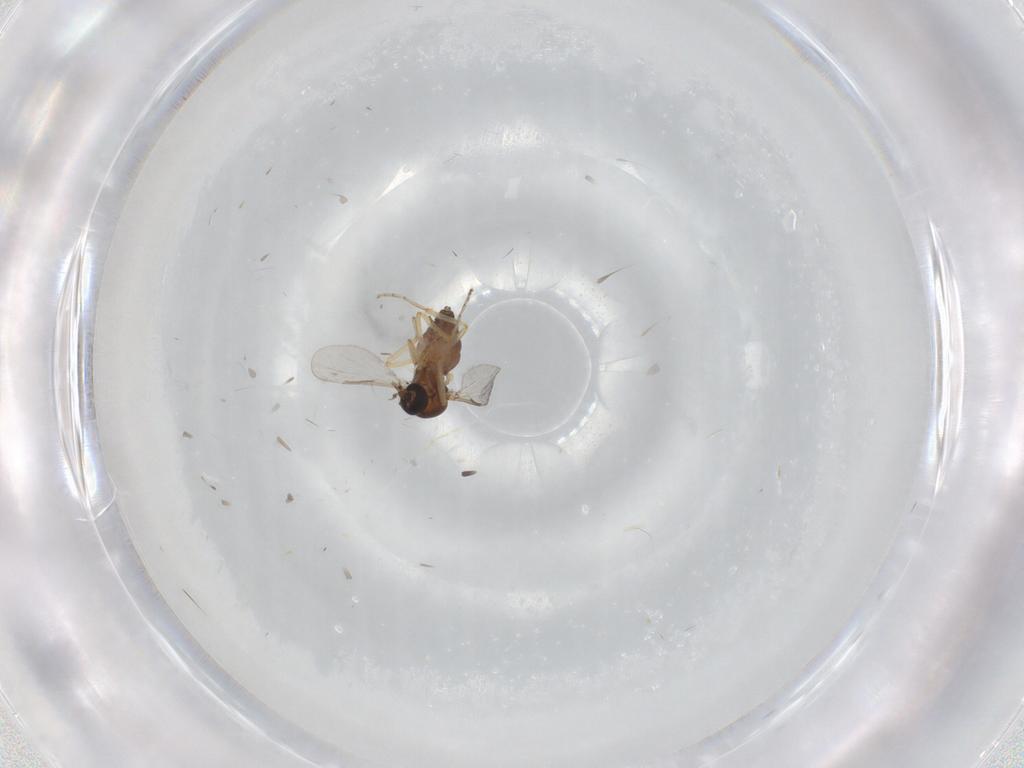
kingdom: Animalia
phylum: Arthropoda
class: Insecta
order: Diptera
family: Ceratopogonidae
